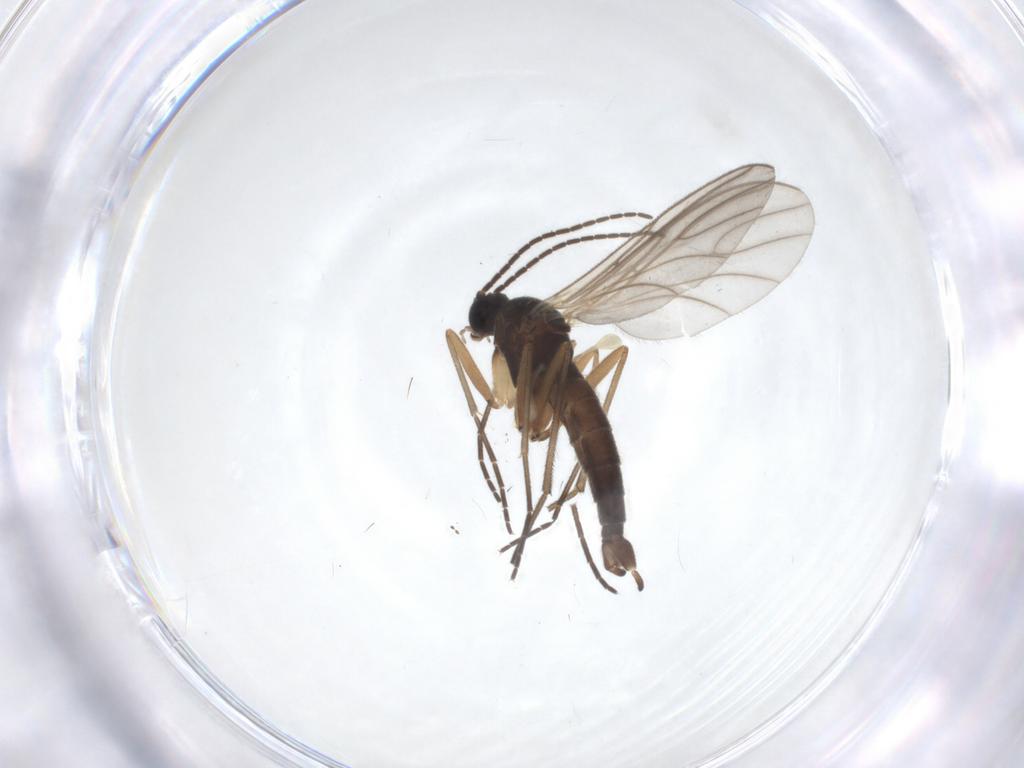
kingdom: Animalia
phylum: Arthropoda
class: Insecta
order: Diptera
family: Sciaridae
